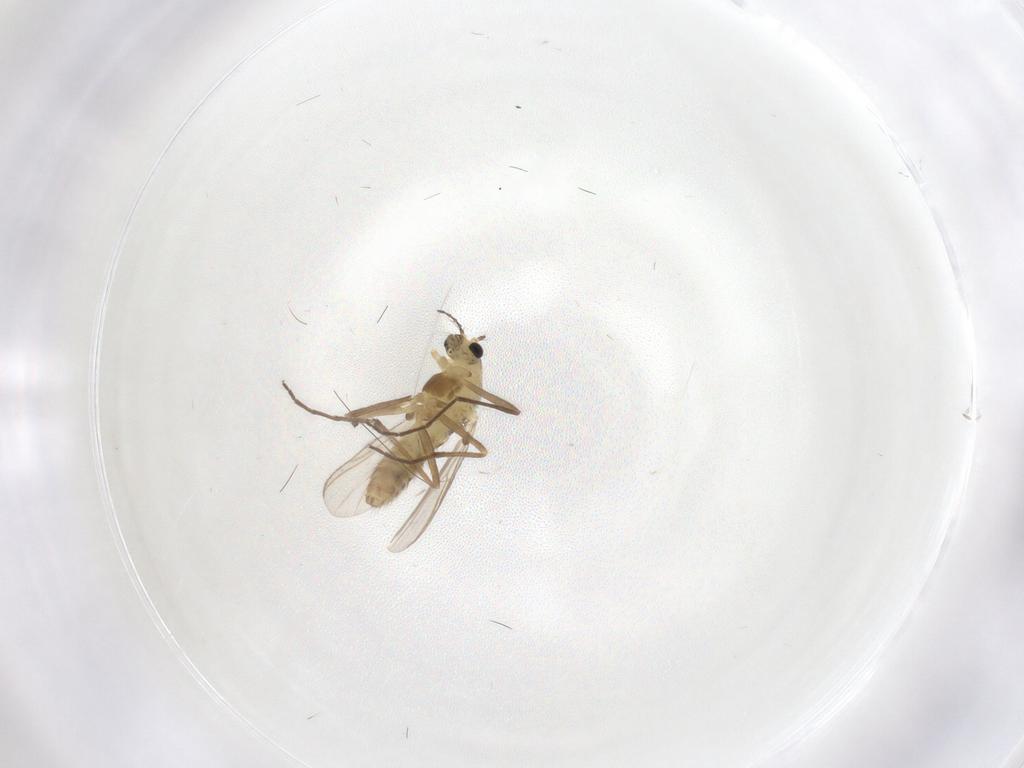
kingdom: Animalia
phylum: Arthropoda
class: Insecta
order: Diptera
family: Chironomidae
